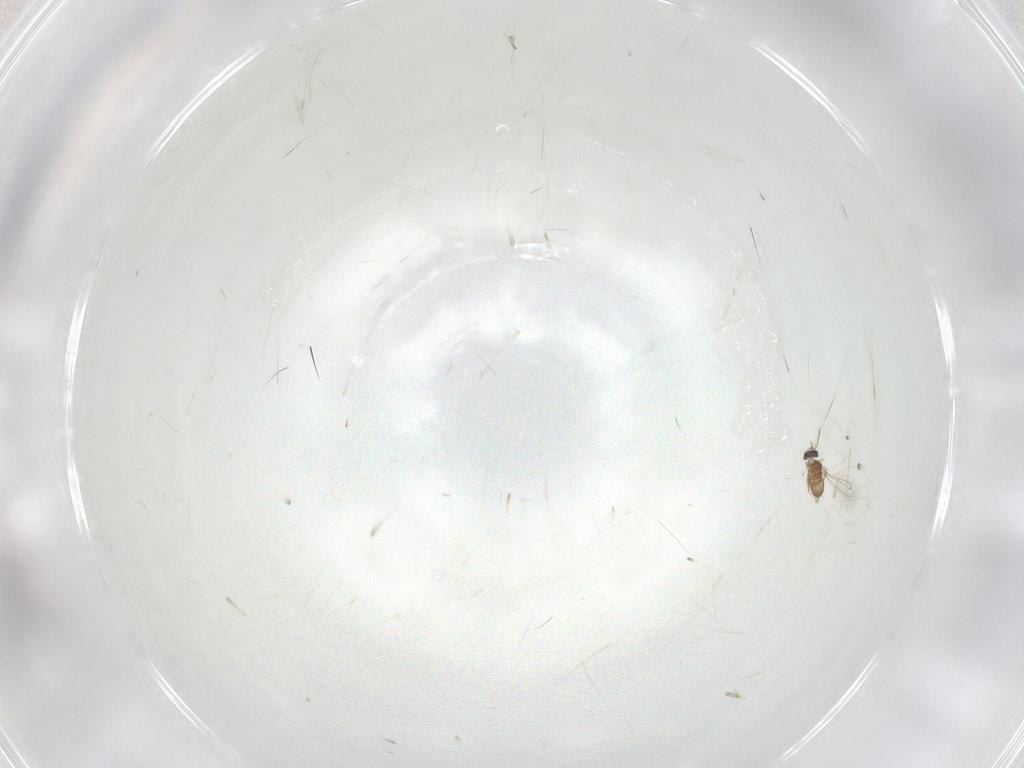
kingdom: Animalia
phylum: Arthropoda
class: Insecta
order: Hymenoptera
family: Mymaridae
